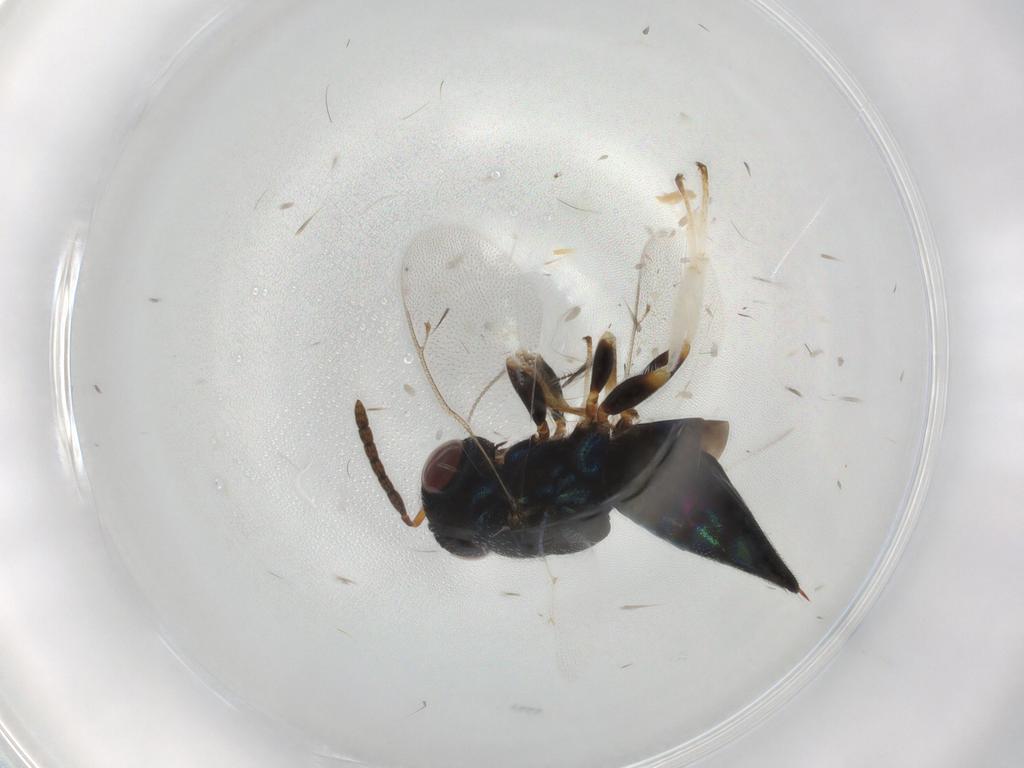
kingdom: Animalia
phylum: Arthropoda
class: Insecta
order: Hymenoptera
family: Pteromalidae
